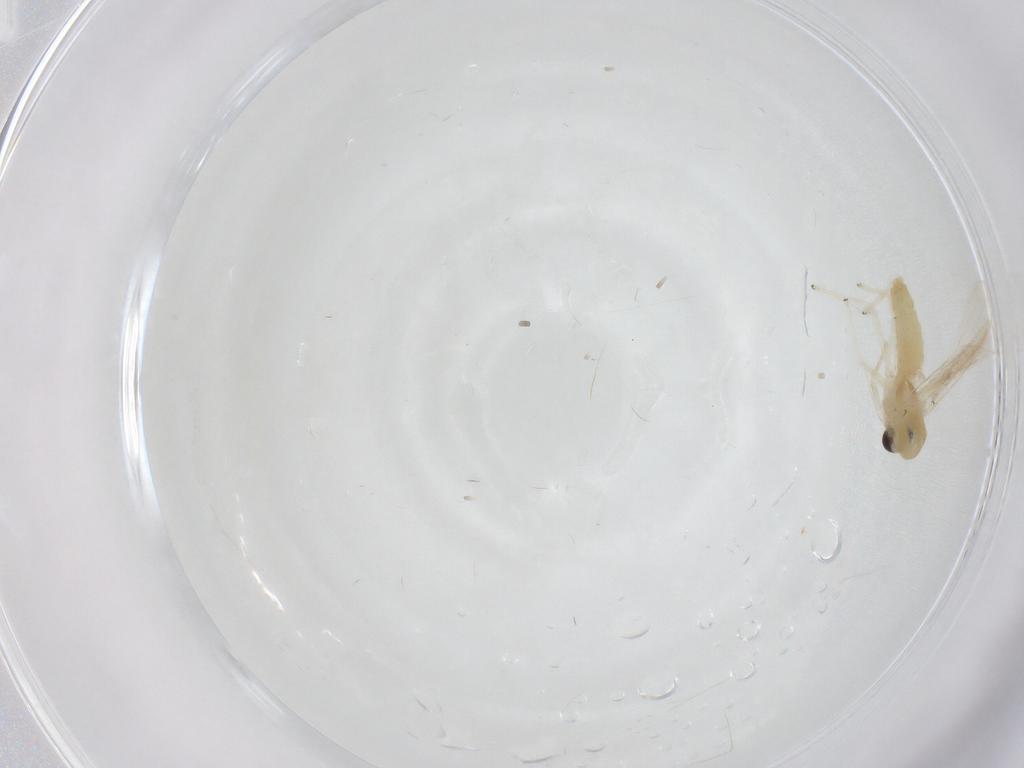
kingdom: Animalia
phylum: Arthropoda
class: Insecta
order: Diptera
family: Chironomidae
